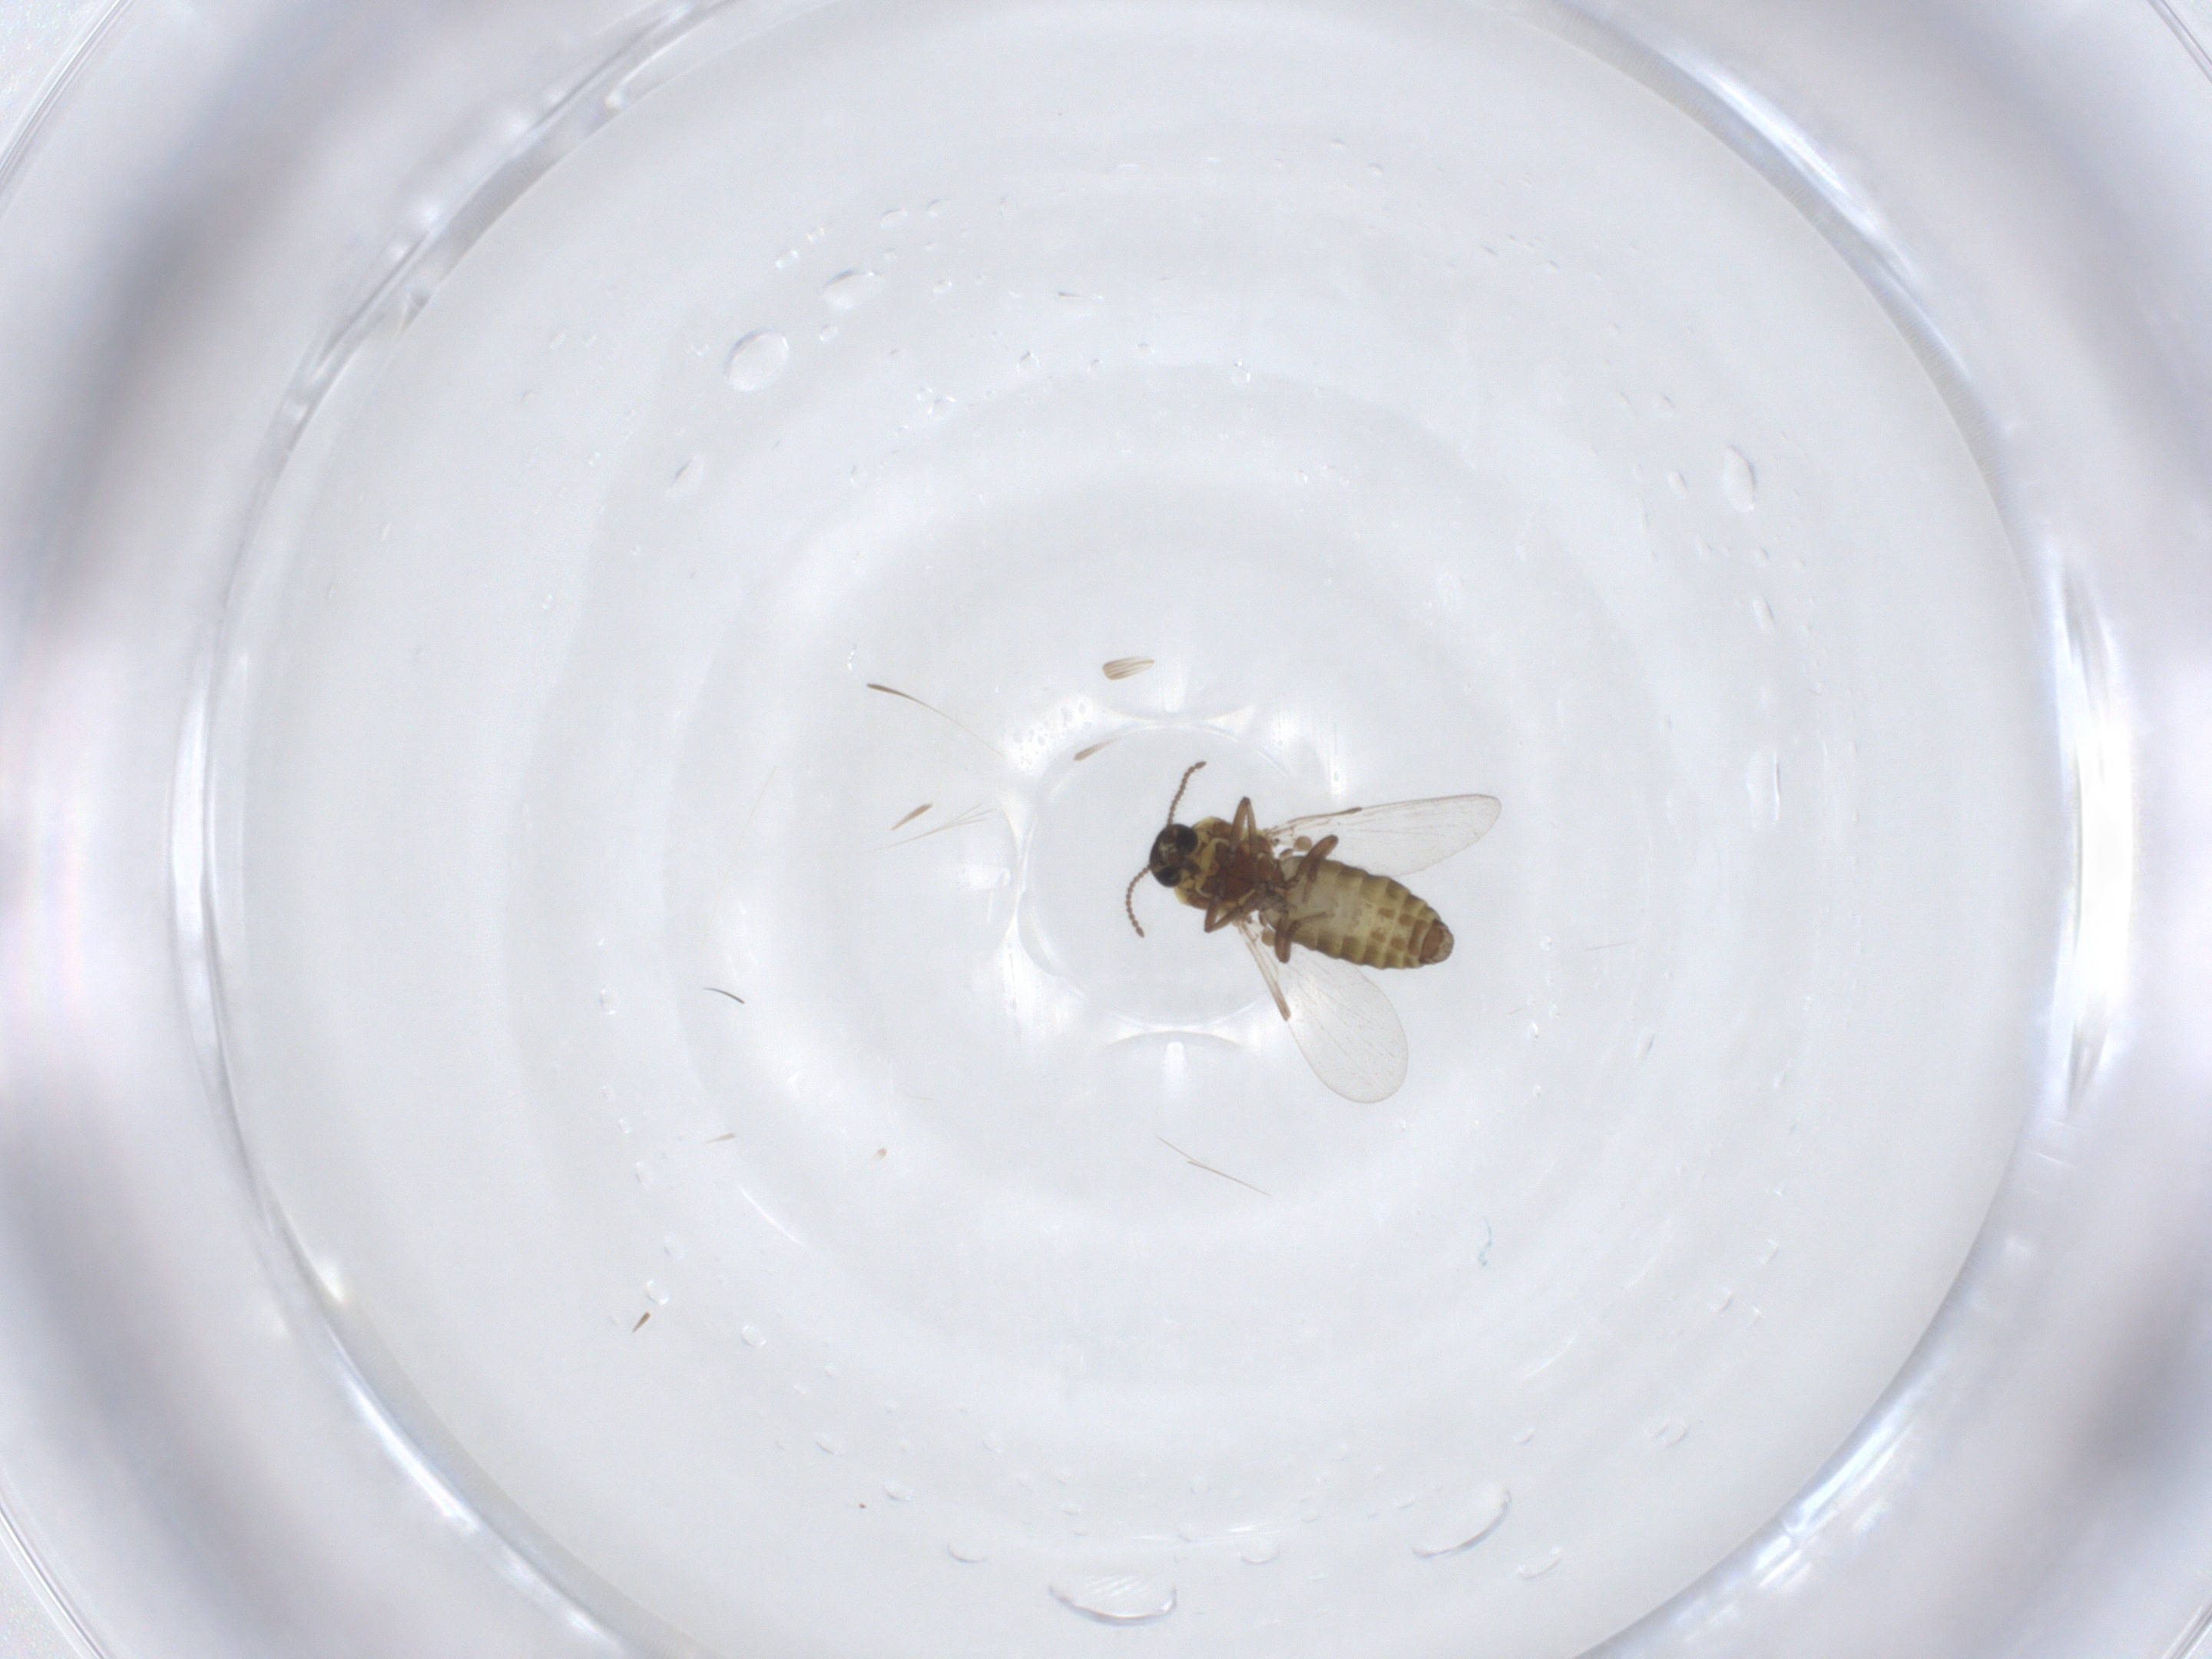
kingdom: Animalia
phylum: Arthropoda
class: Insecta
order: Diptera
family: Ceratopogonidae
